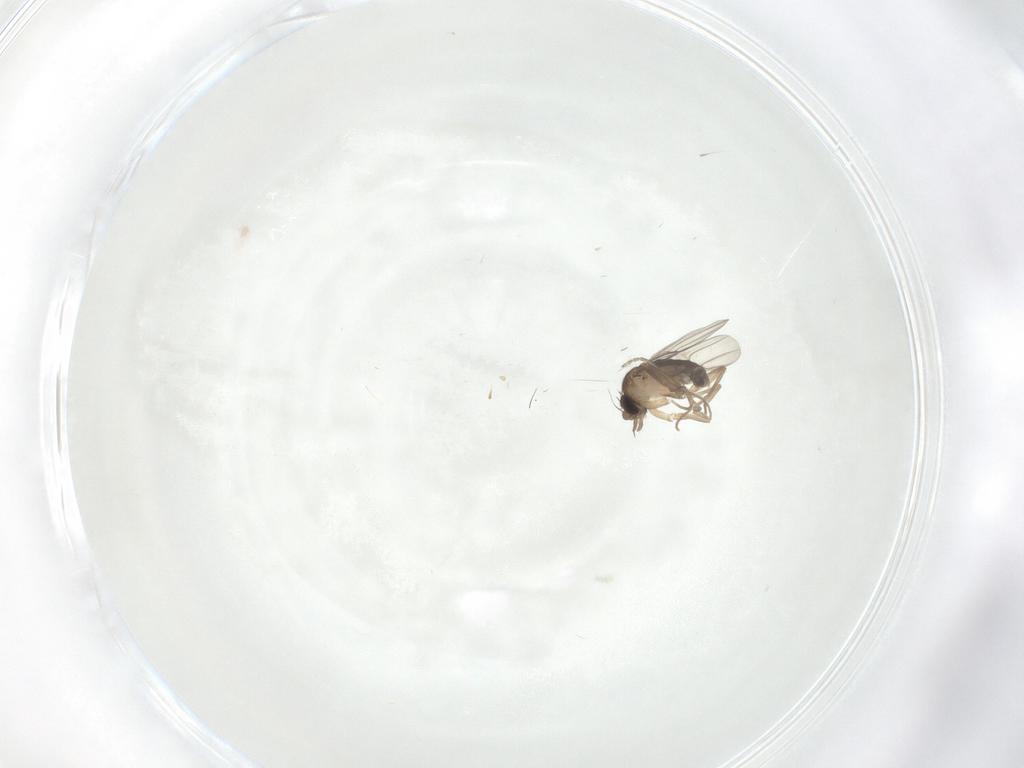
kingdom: Animalia
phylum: Arthropoda
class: Insecta
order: Diptera
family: Phoridae
